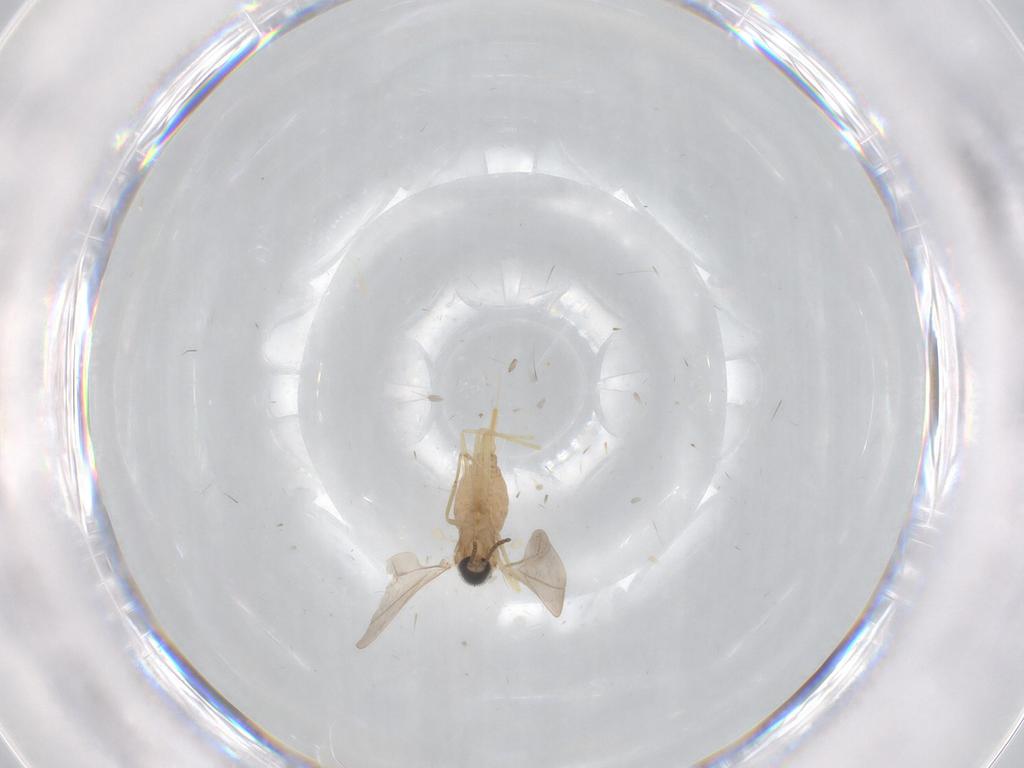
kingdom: Animalia
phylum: Arthropoda
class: Insecta
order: Diptera
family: Cecidomyiidae
